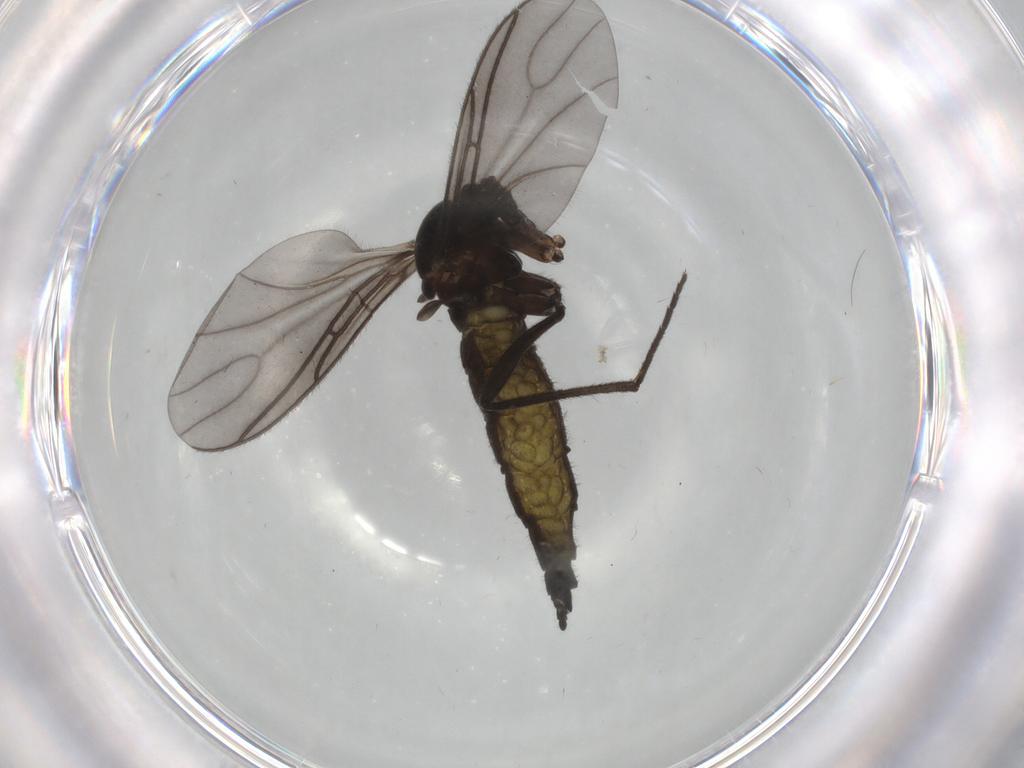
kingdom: Animalia
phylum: Arthropoda
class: Insecta
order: Diptera
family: Sciaridae
